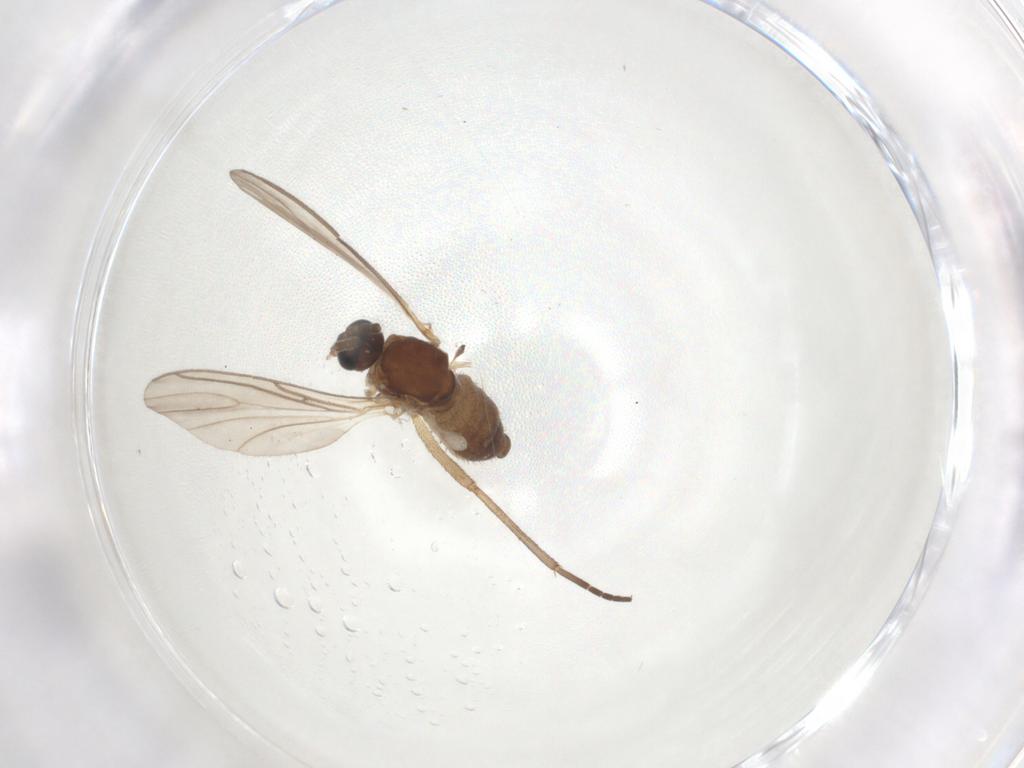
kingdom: Animalia
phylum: Arthropoda
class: Insecta
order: Diptera
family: Sciaridae
